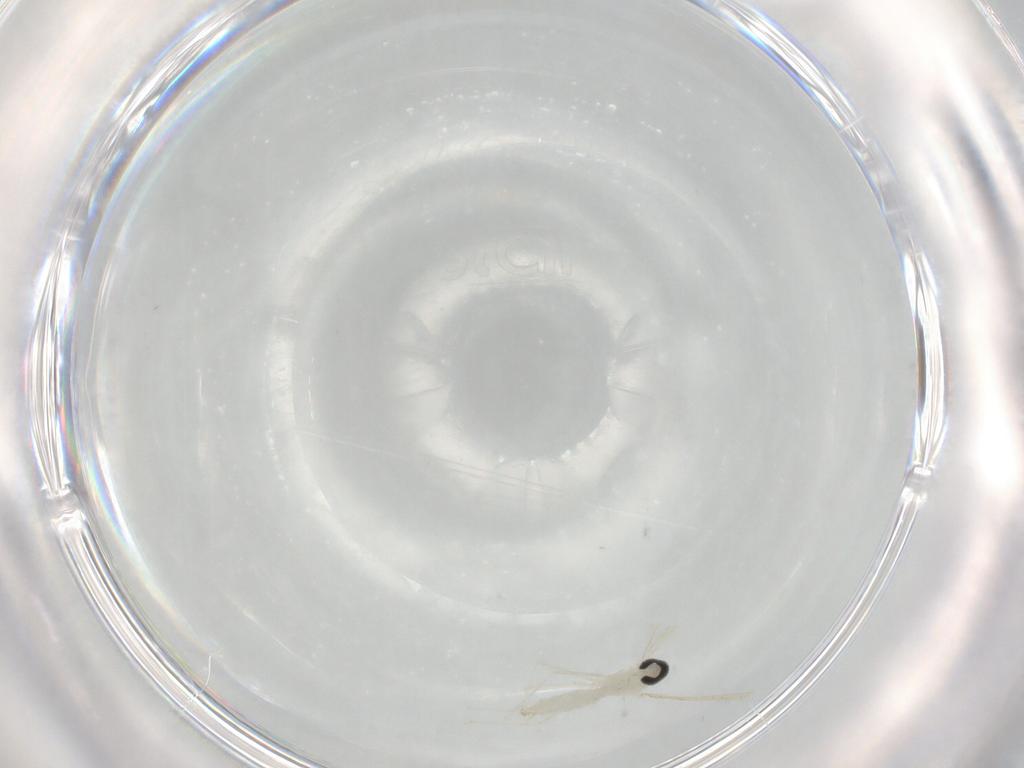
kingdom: Animalia
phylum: Arthropoda
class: Insecta
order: Diptera
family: Cecidomyiidae
